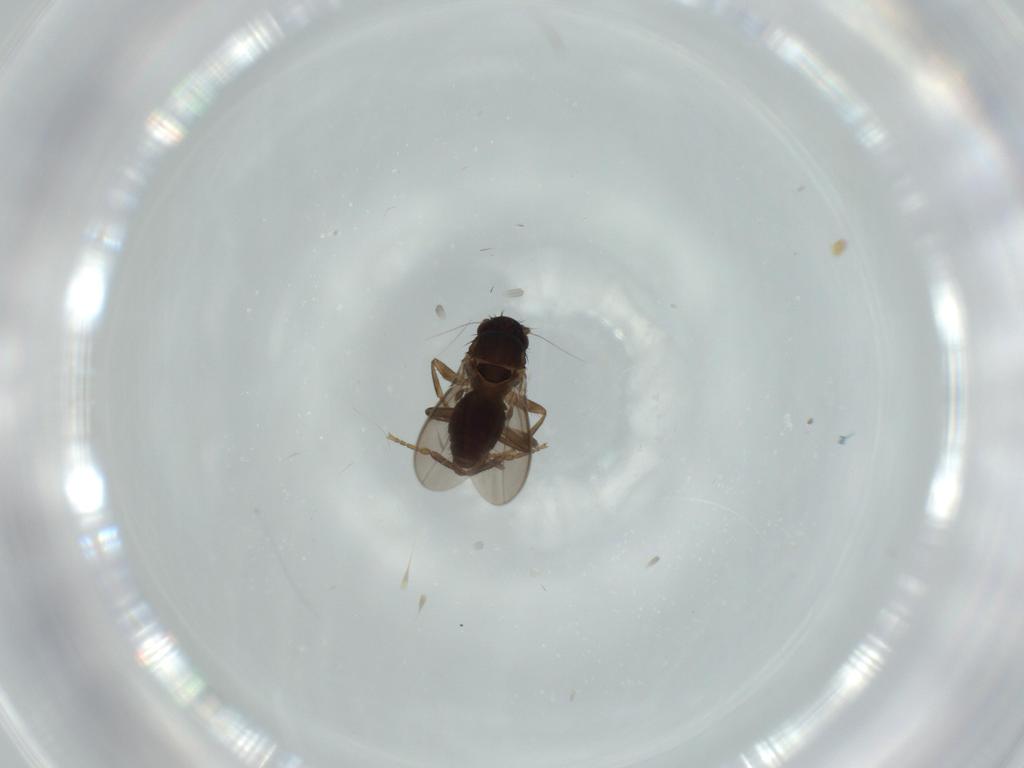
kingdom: Animalia
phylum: Arthropoda
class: Insecta
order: Diptera
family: Sphaeroceridae
